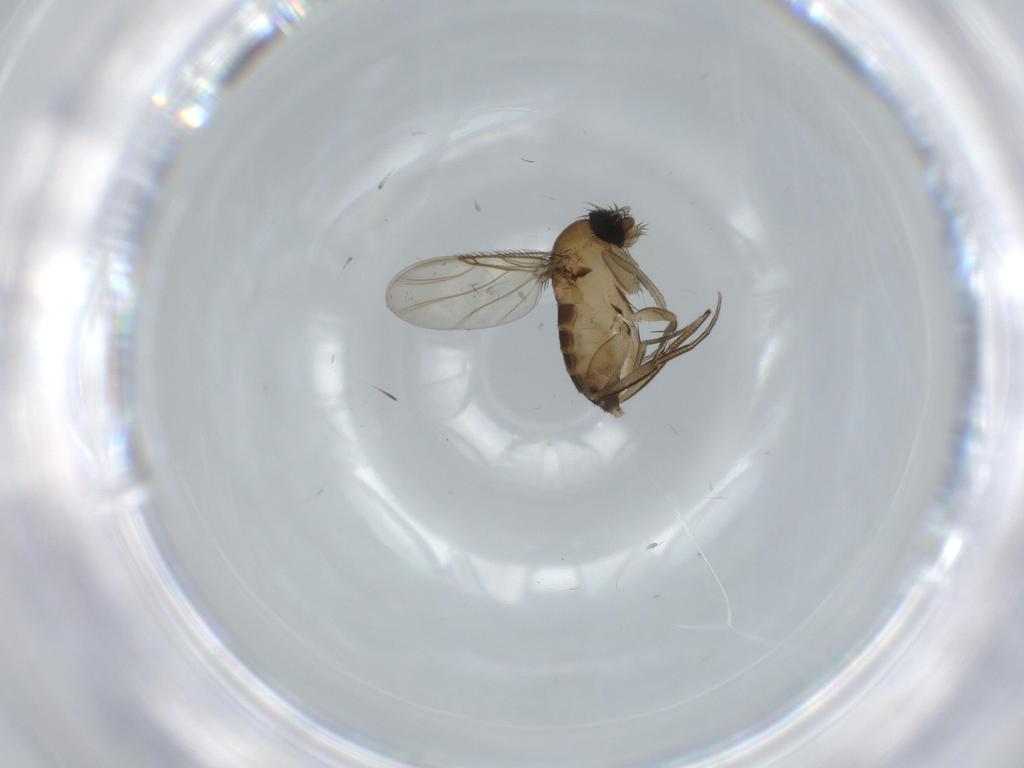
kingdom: Animalia
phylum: Arthropoda
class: Insecta
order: Diptera
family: Phoridae
